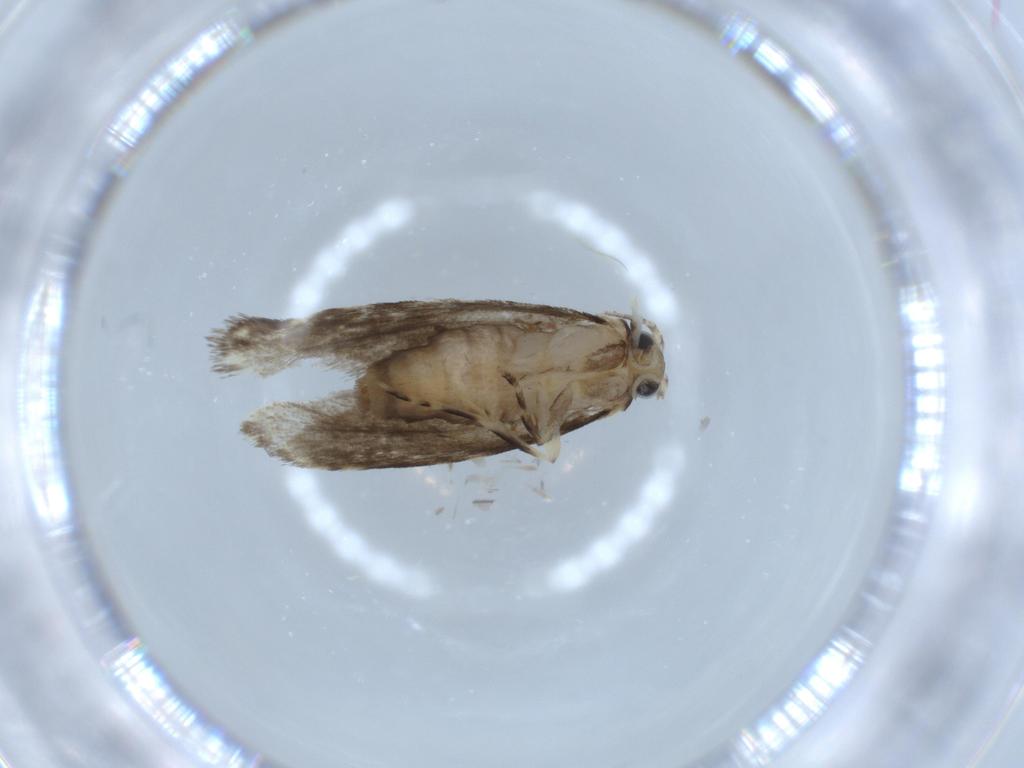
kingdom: Animalia
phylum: Arthropoda
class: Insecta
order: Lepidoptera
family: Tineidae
